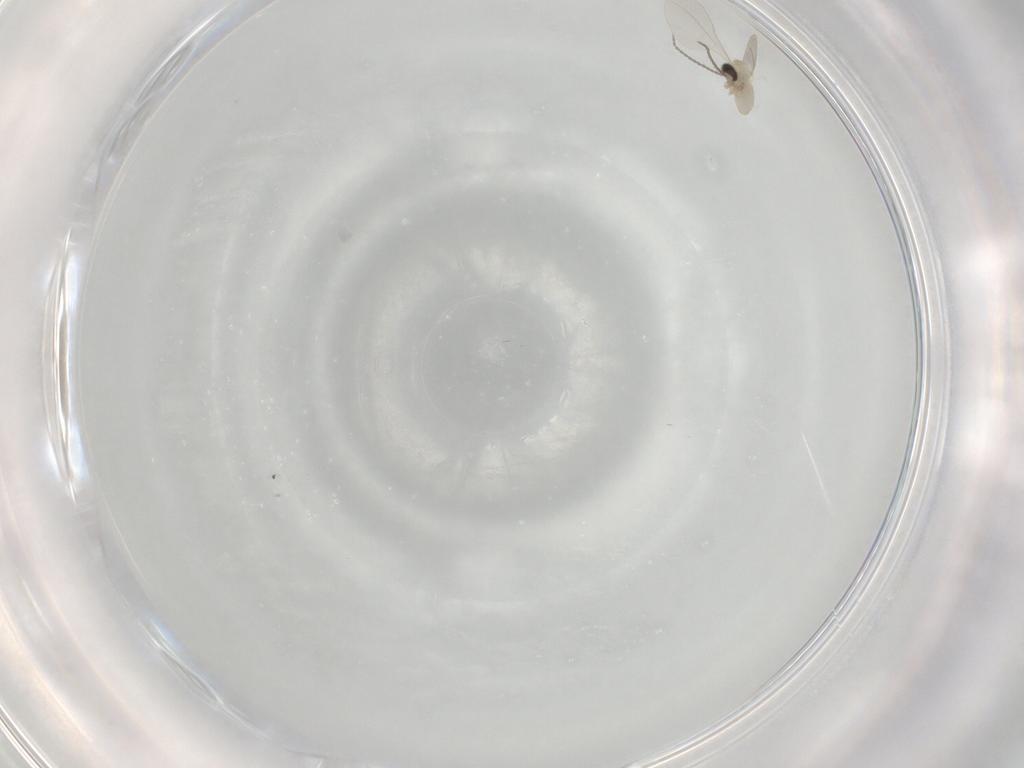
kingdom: Animalia
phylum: Arthropoda
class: Insecta
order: Diptera
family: Cecidomyiidae
